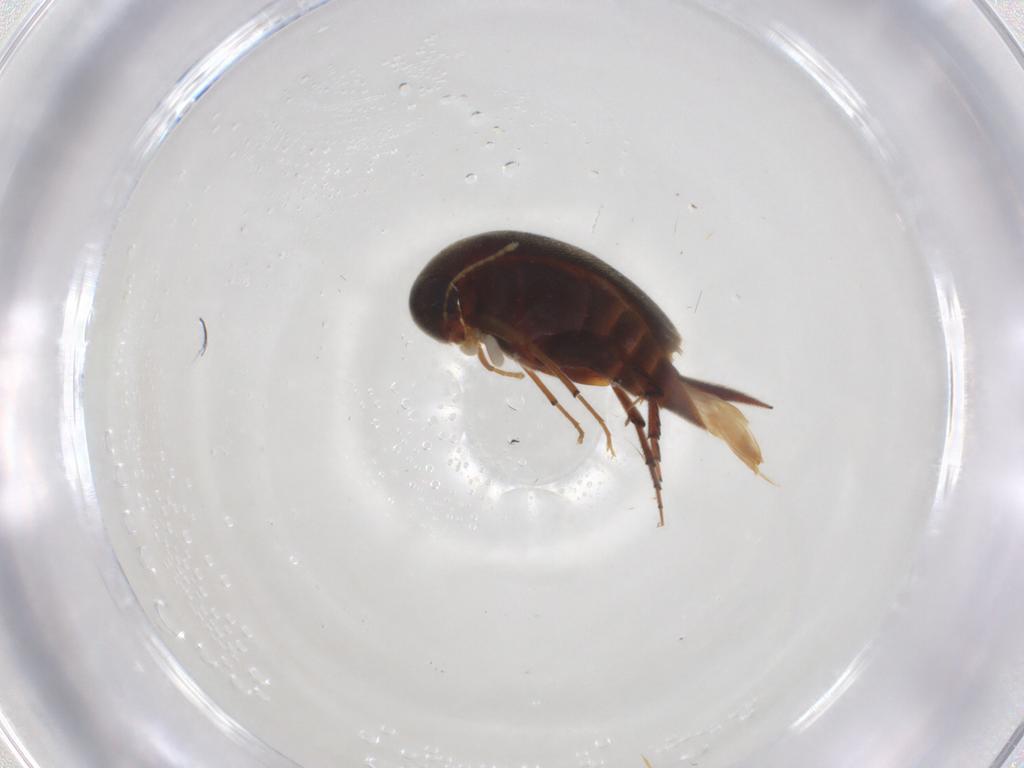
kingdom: Animalia
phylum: Arthropoda
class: Insecta
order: Coleoptera
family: Mordellidae
